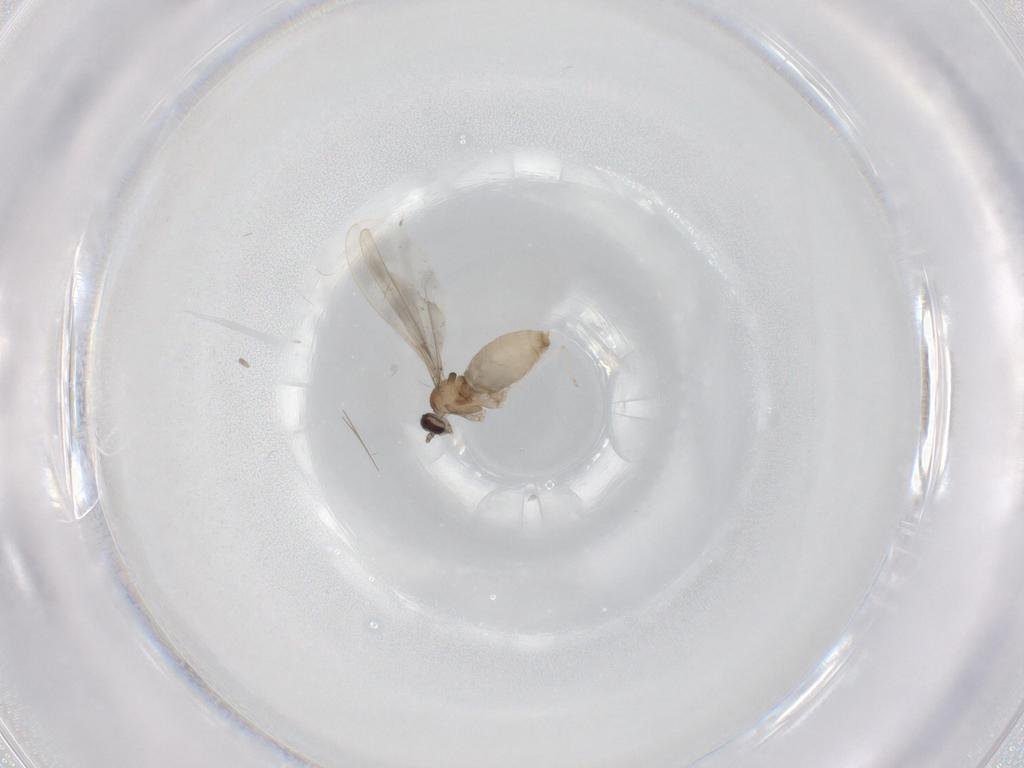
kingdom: Animalia
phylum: Arthropoda
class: Insecta
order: Diptera
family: Cecidomyiidae
